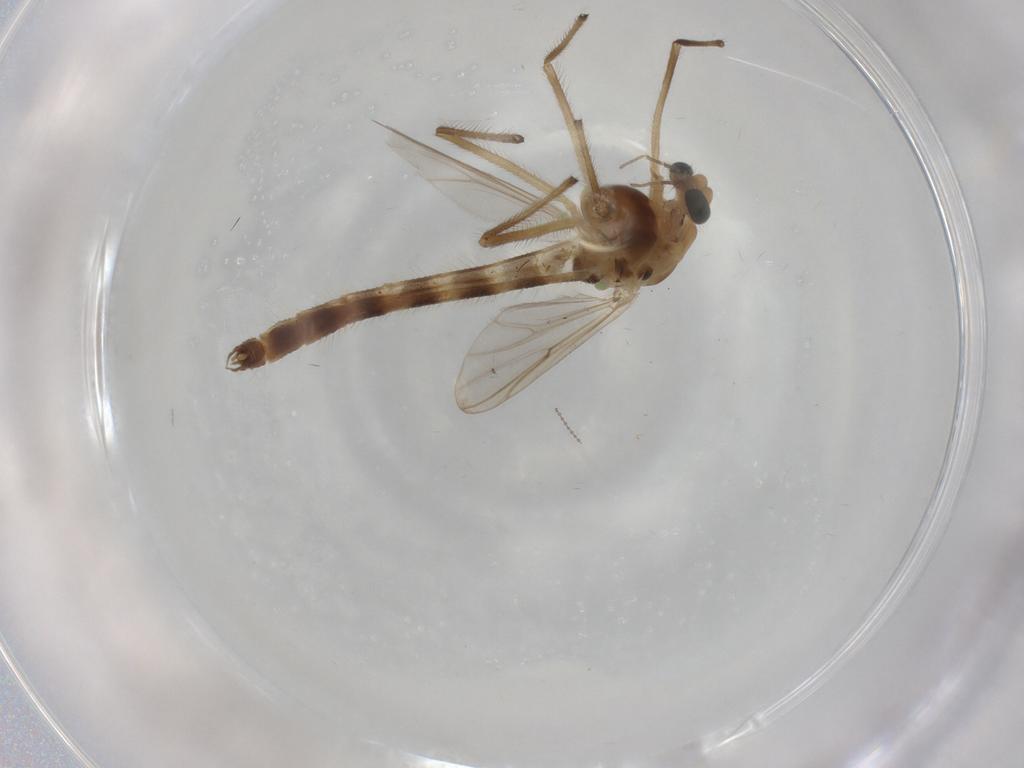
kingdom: Animalia
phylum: Arthropoda
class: Insecta
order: Diptera
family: Chironomidae
